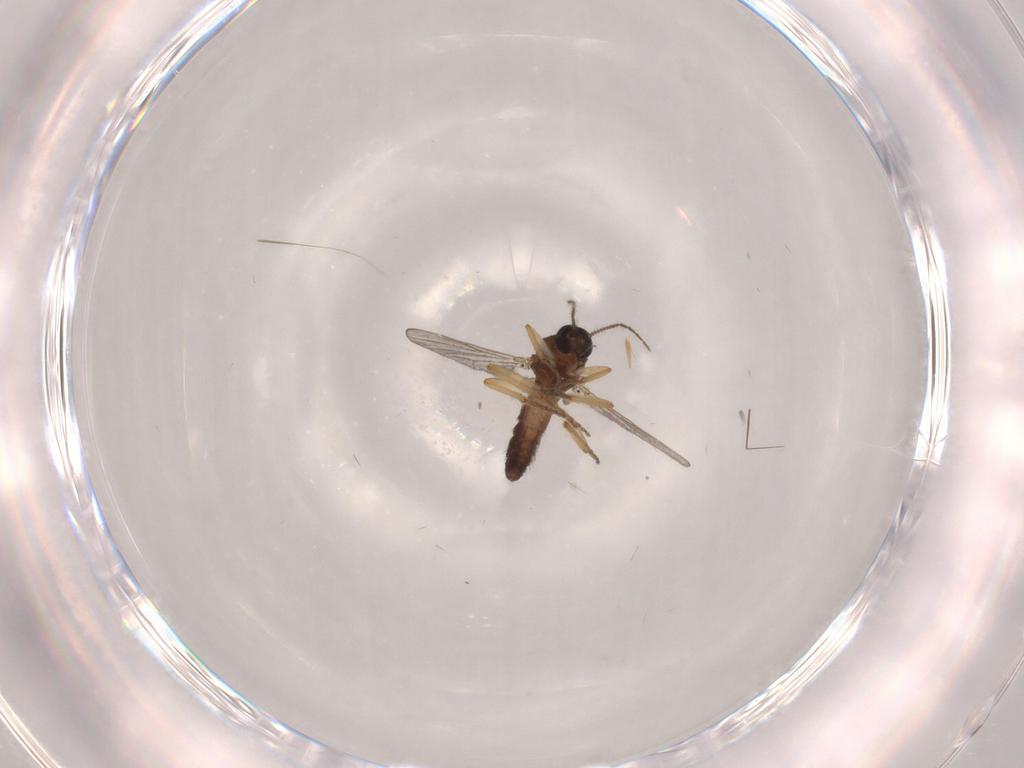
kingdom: Animalia
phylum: Arthropoda
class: Insecta
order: Diptera
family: Ceratopogonidae
